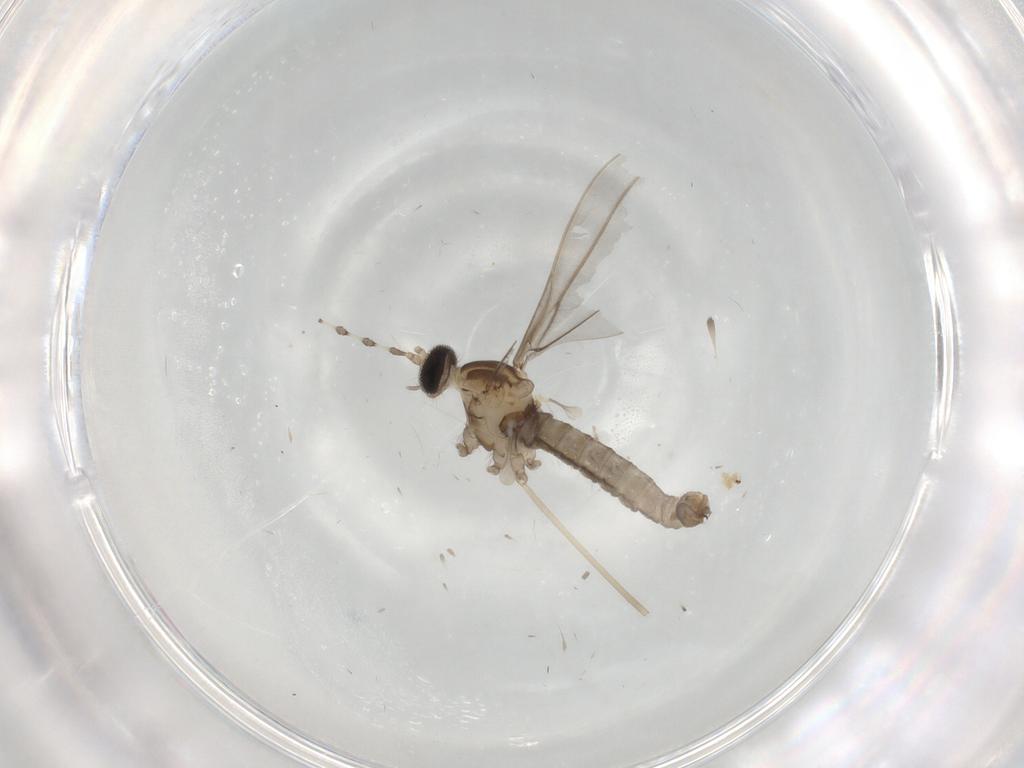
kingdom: Animalia
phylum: Arthropoda
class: Insecta
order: Diptera
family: Cecidomyiidae
